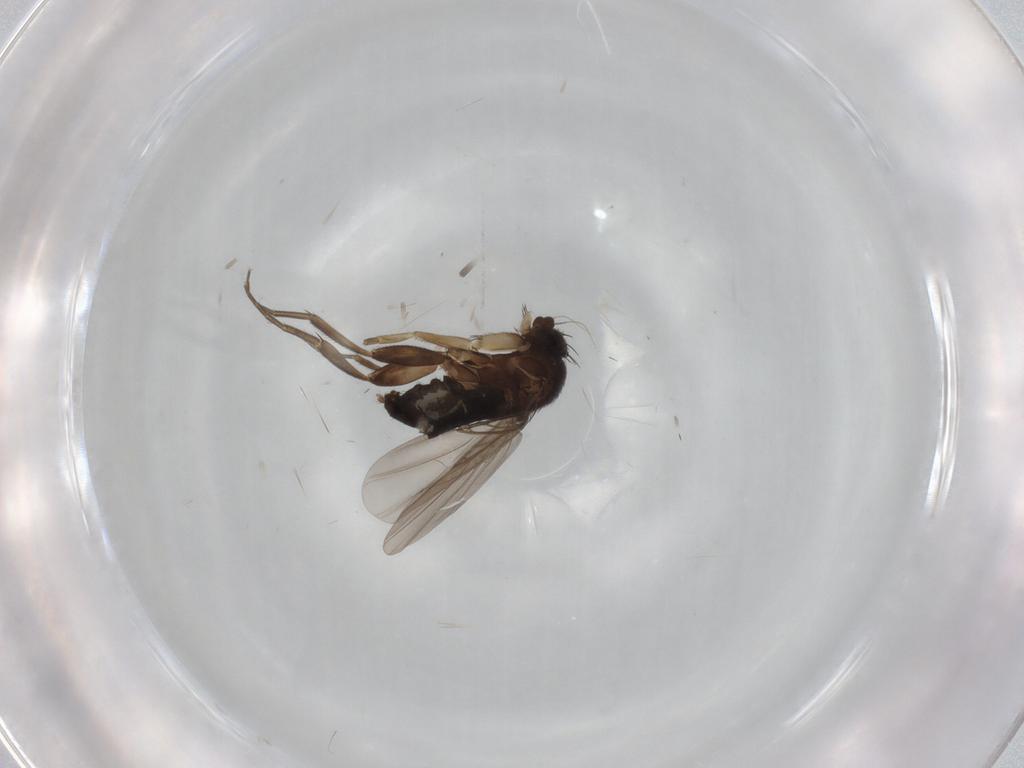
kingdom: Animalia
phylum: Arthropoda
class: Insecta
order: Diptera
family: Phoridae
